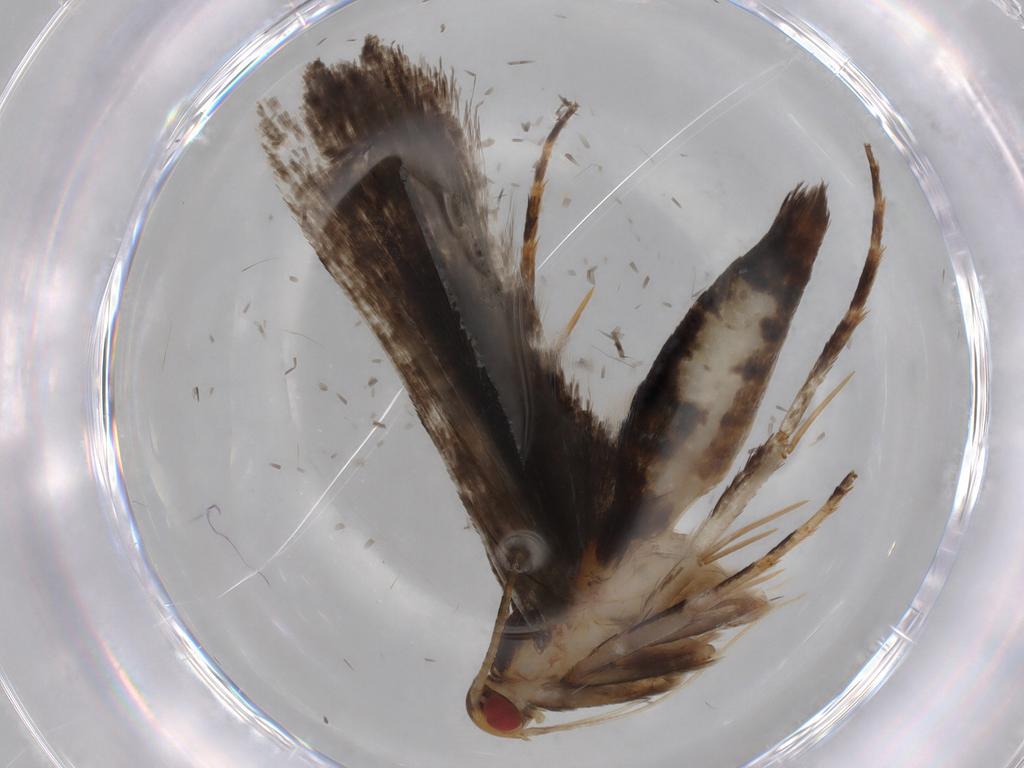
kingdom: Animalia
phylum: Arthropoda
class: Insecta
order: Lepidoptera
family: Gelechiidae
